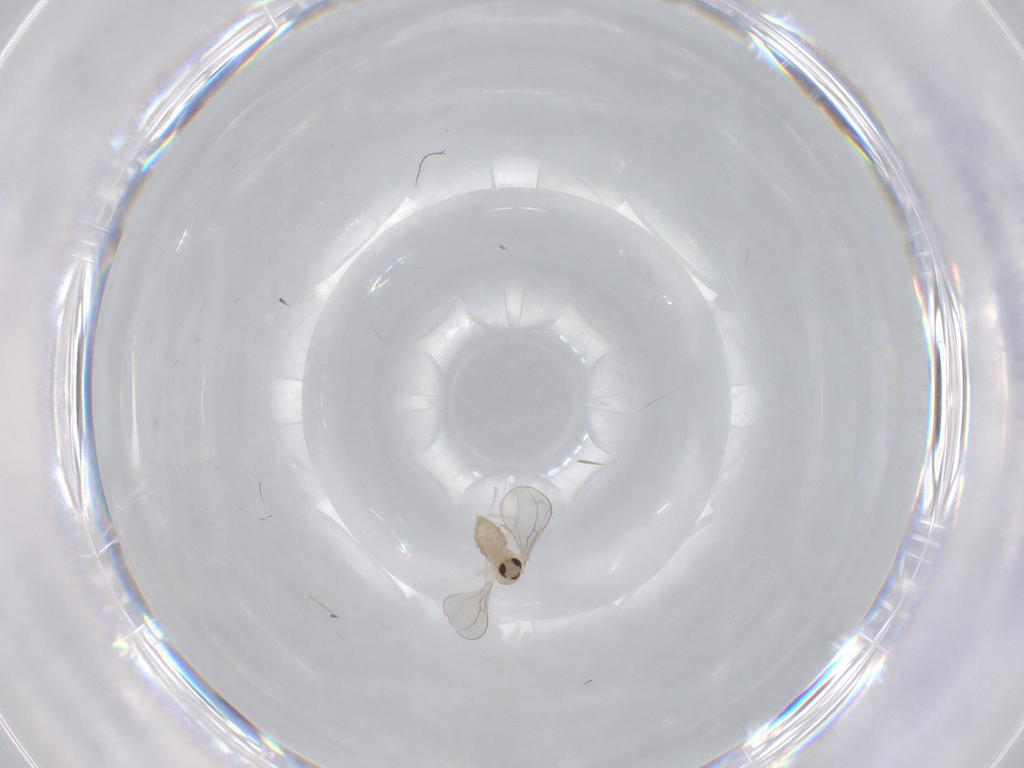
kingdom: Animalia
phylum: Arthropoda
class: Insecta
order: Diptera
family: Cecidomyiidae
